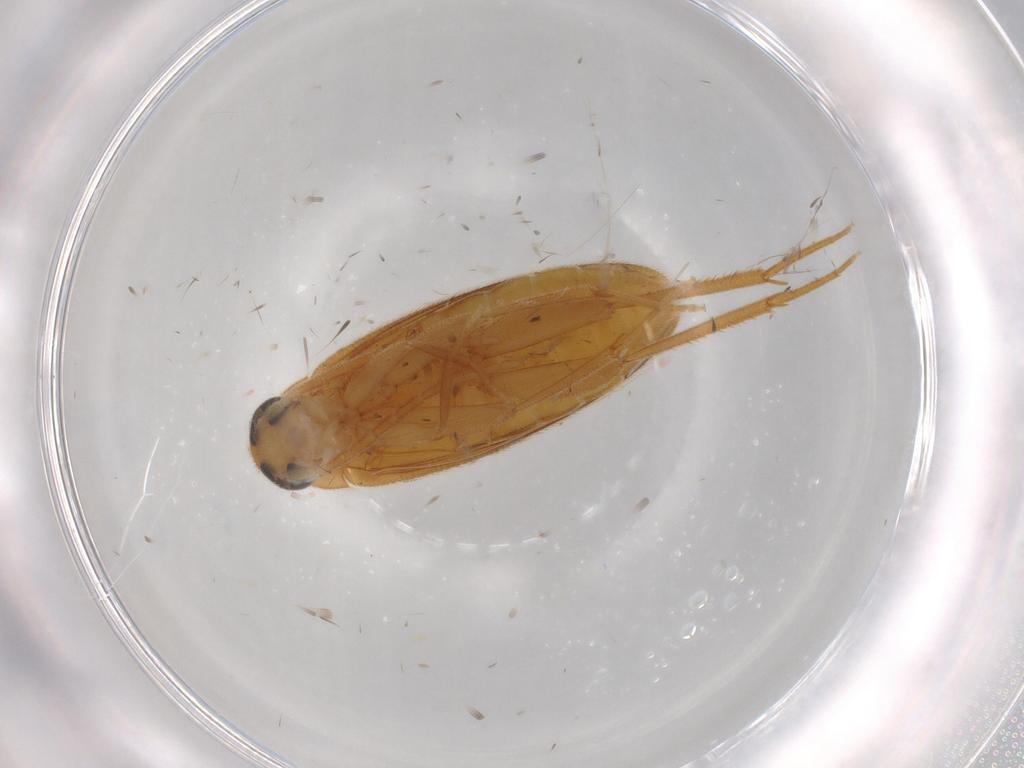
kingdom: Animalia
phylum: Arthropoda
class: Insecta
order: Coleoptera
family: Scraptiidae
